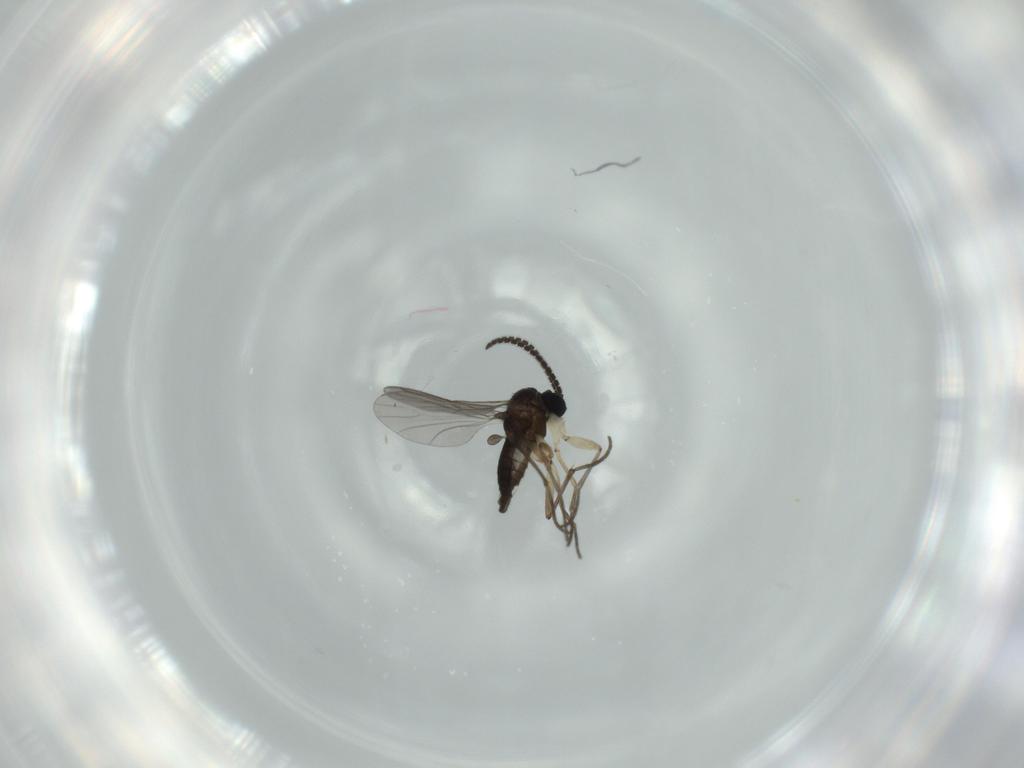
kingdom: Animalia
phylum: Arthropoda
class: Insecta
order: Diptera
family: Sciaridae
